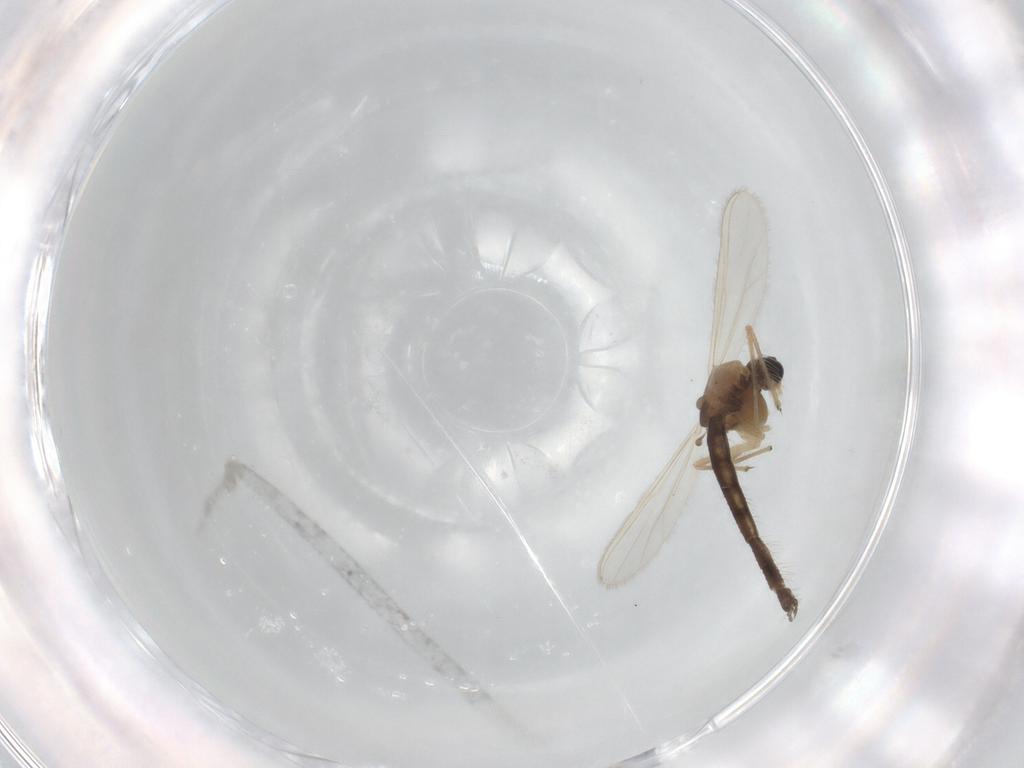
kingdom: Animalia
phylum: Arthropoda
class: Insecta
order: Diptera
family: Chironomidae
